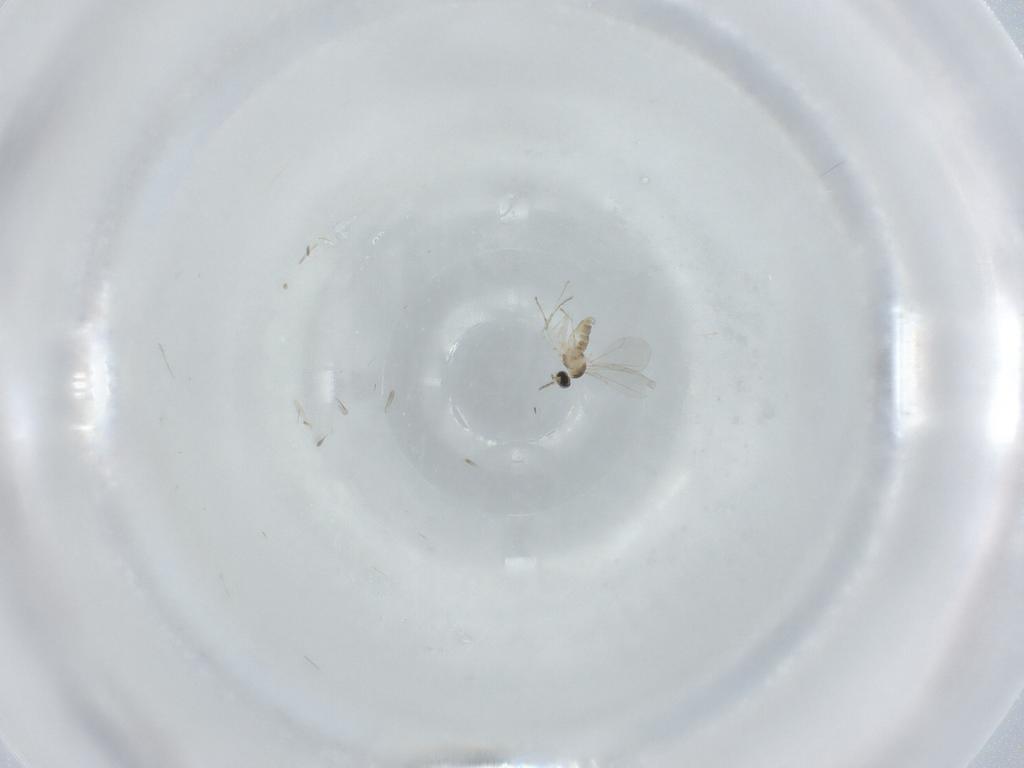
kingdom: Animalia
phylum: Arthropoda
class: Insecta
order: Diptera
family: Cecidomyiidae
